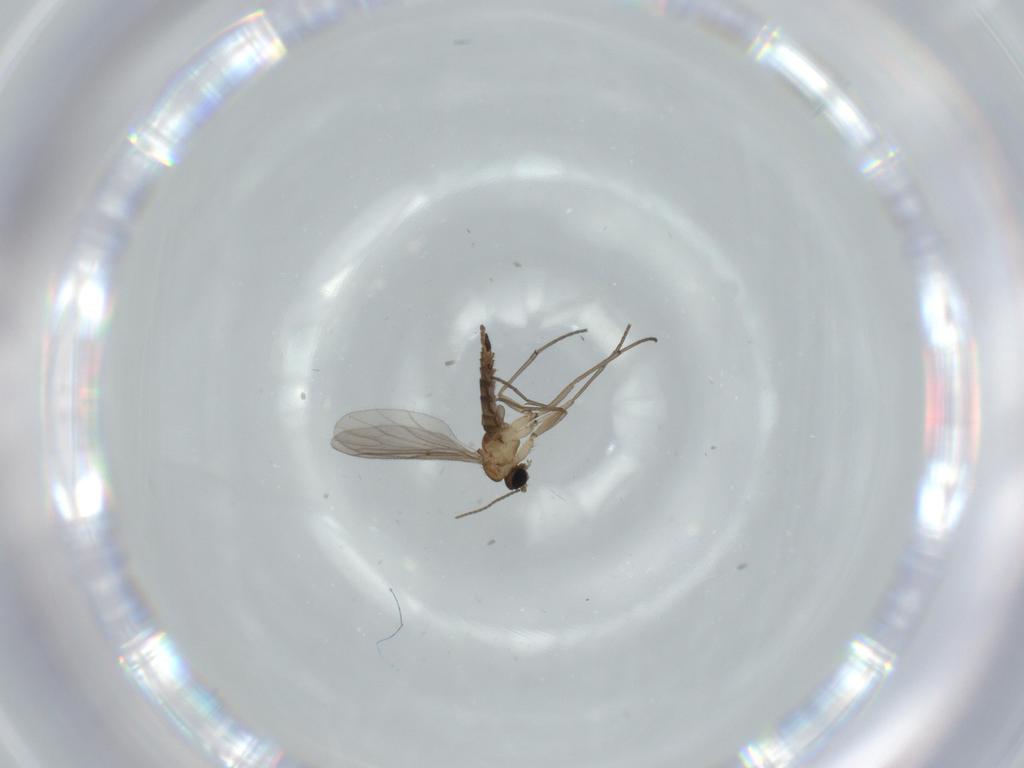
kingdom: Animalia
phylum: Arthropoda
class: Insecta
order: Diptera
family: Sciaridae
